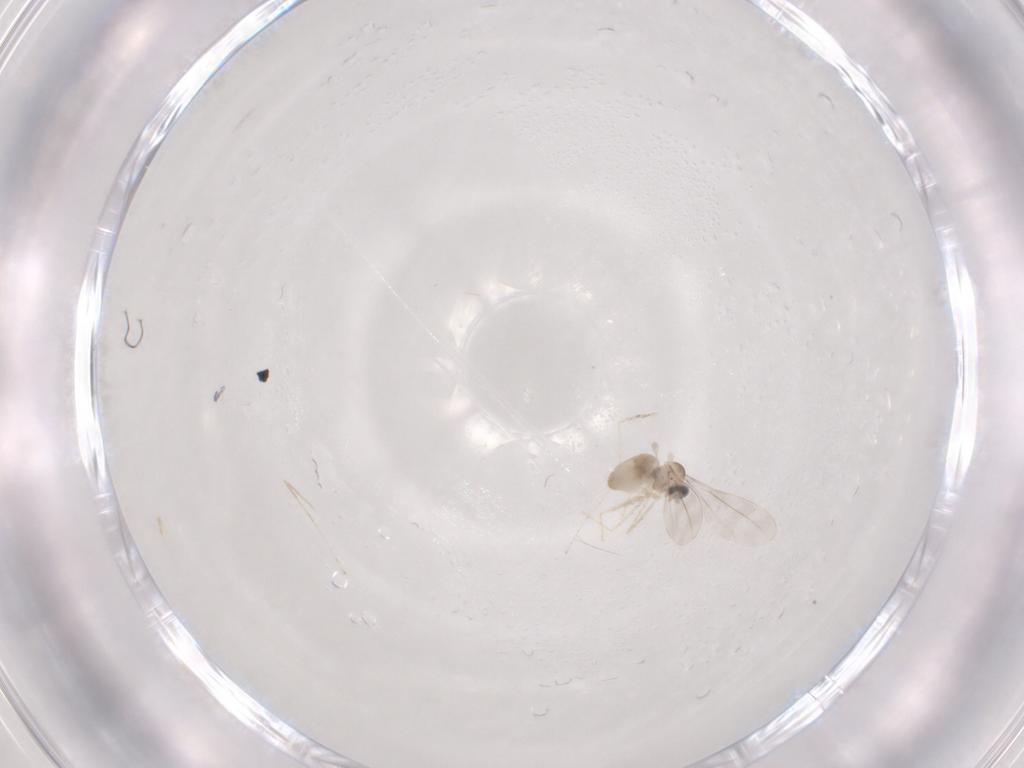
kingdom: Animalia
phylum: Arthropoda
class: Insecta
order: Diptera
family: Cecidomyiidae
